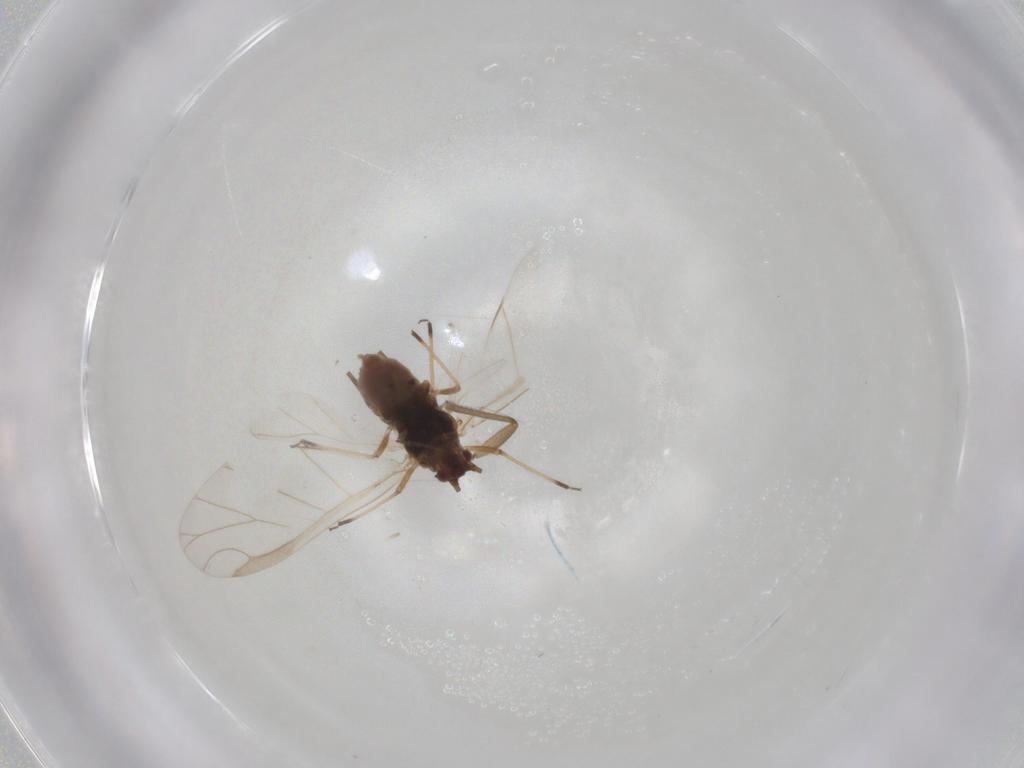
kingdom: Animalia
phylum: Arthropoda
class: Insecta
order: Hemiptera
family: Aphididae
